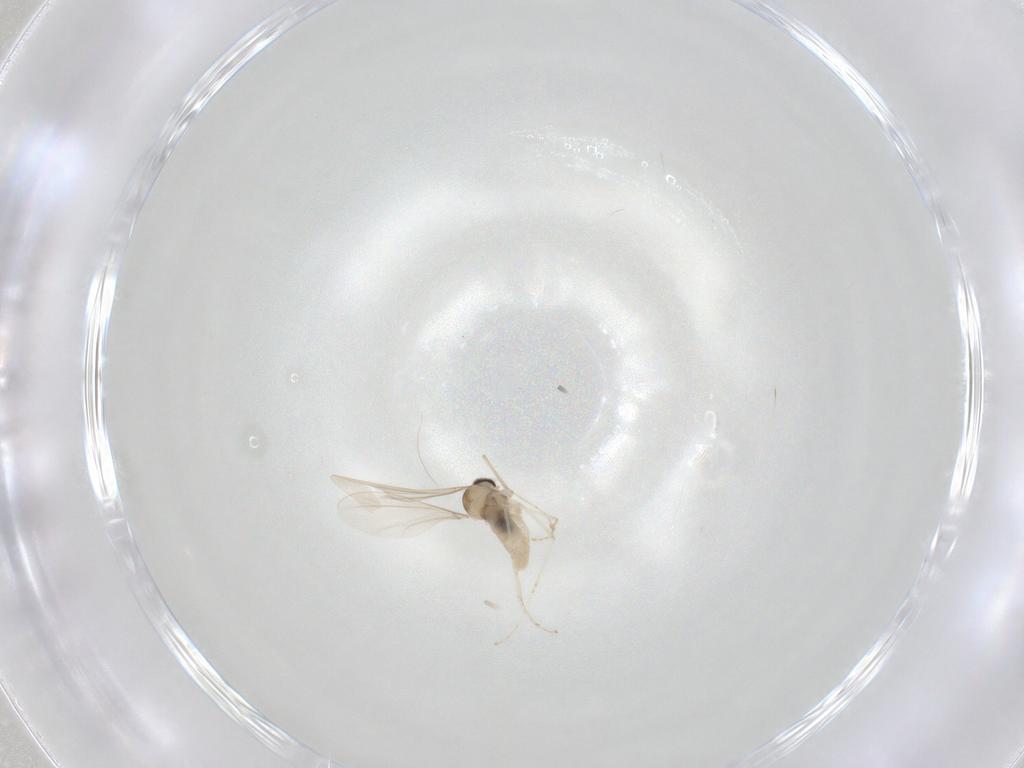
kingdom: Animalia
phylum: Arthropoda
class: Insecta
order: Diptera
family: Cecidomyiidae
